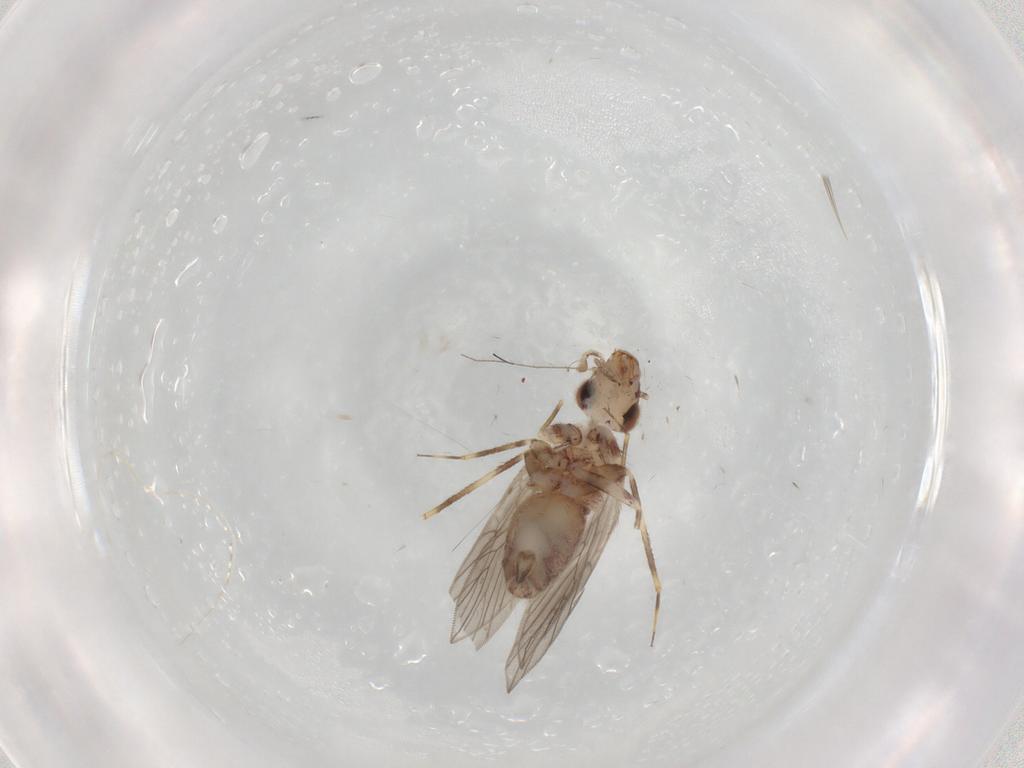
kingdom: Animalia
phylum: Arthropoda
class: Insecta
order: Psocodea
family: Lepidopsocidae
